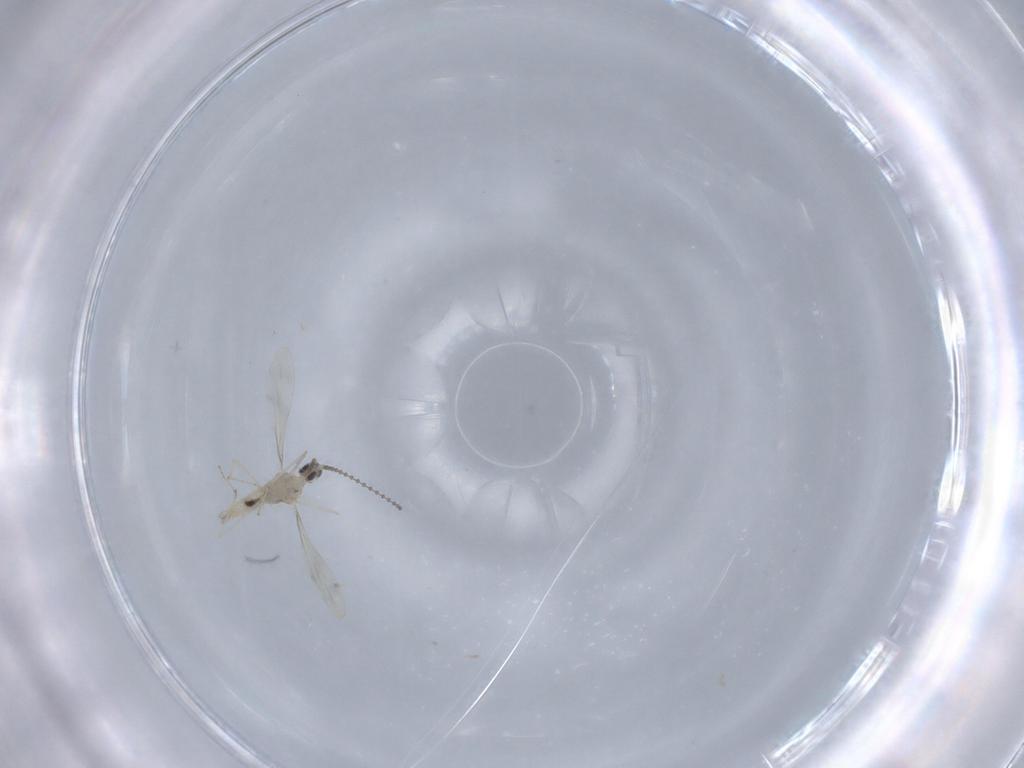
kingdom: Animalia
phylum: Arthropoda
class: Insecta
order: Diptera
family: Cecidomyiidae
